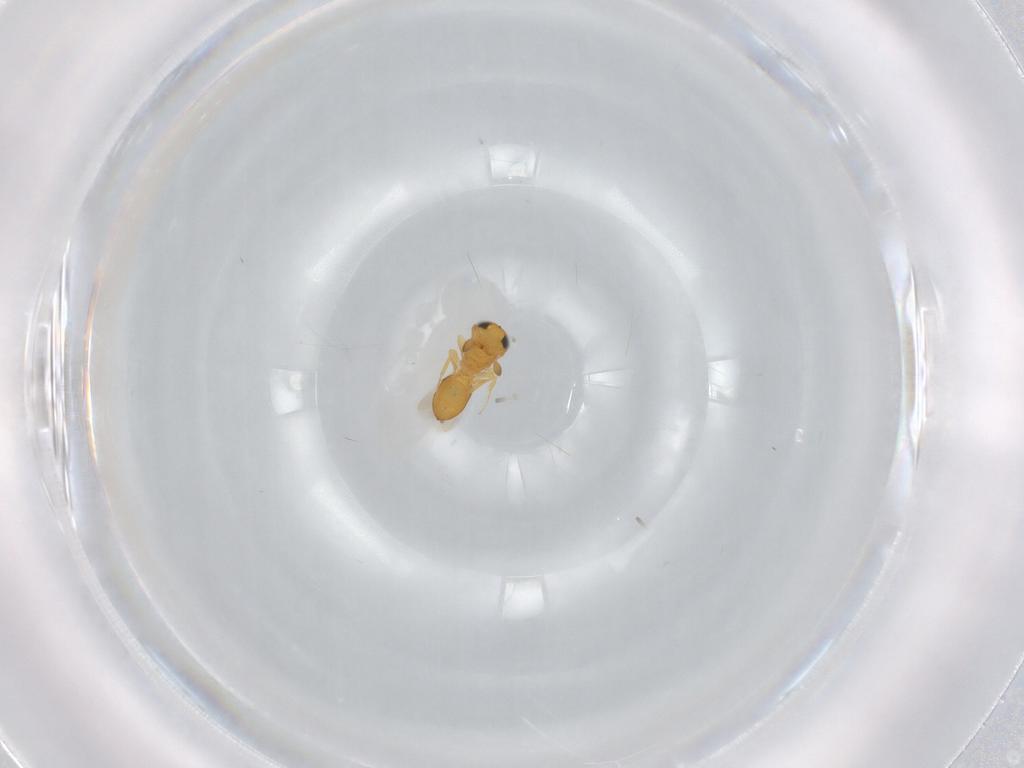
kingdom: Animalia
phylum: Arthropoda
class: Insecta
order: Hymenoptera
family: Scelionidae
